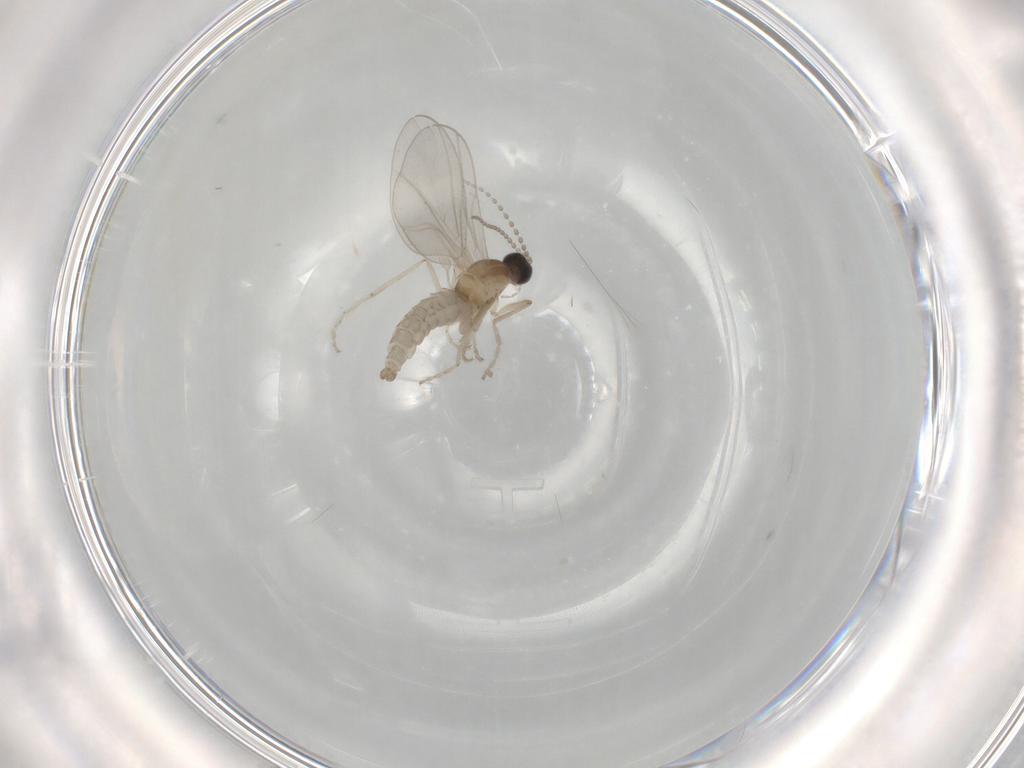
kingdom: Animalia
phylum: Arthropoda
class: Insecta
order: Diptera
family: Cecidomyiidae
